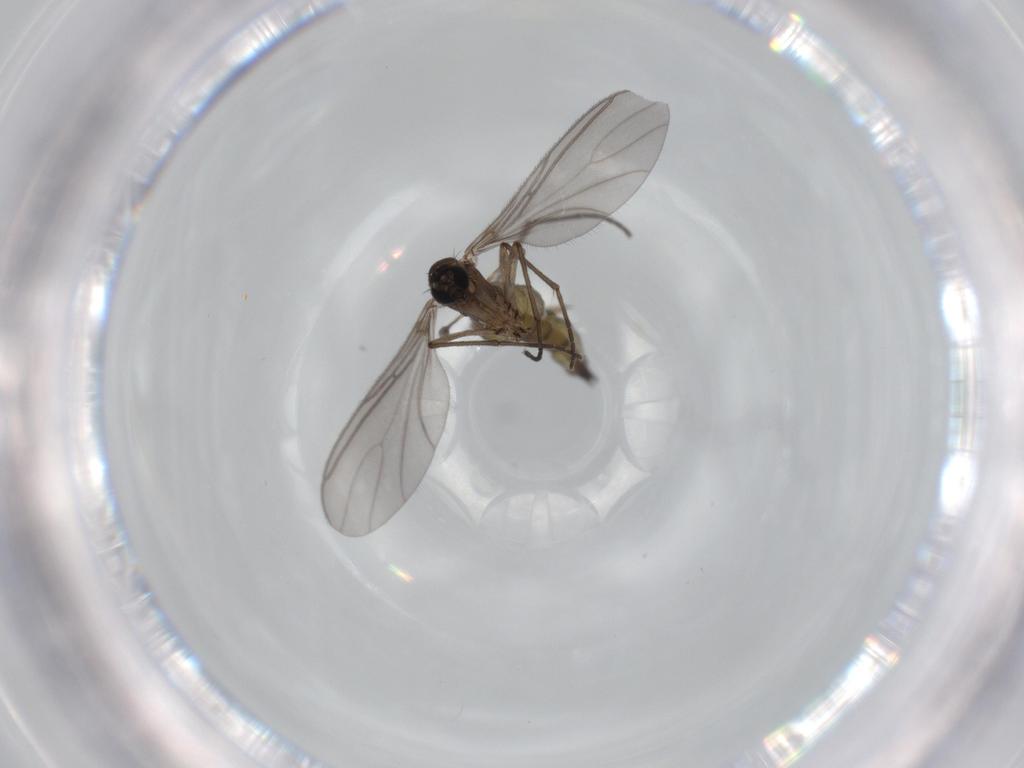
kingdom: Animalia
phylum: Arthropoda
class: Insecta
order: Diptera
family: Sciaridae
